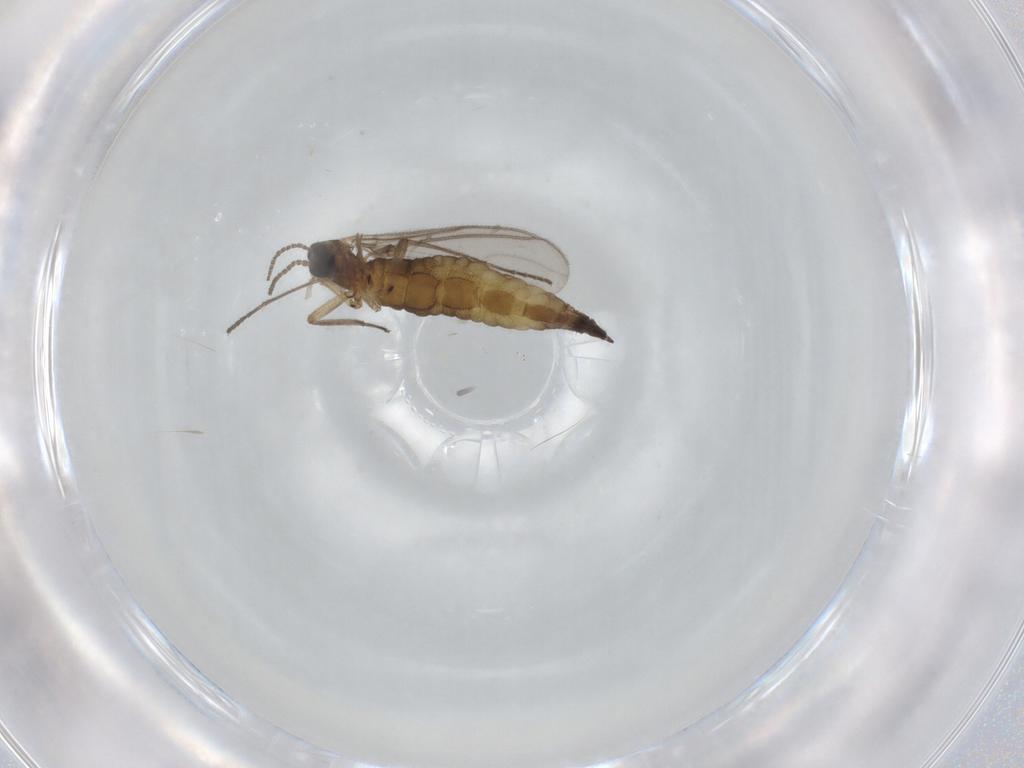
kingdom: Animalia
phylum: Arthropoda
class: Insecta
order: Diptera
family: Sciaridae
